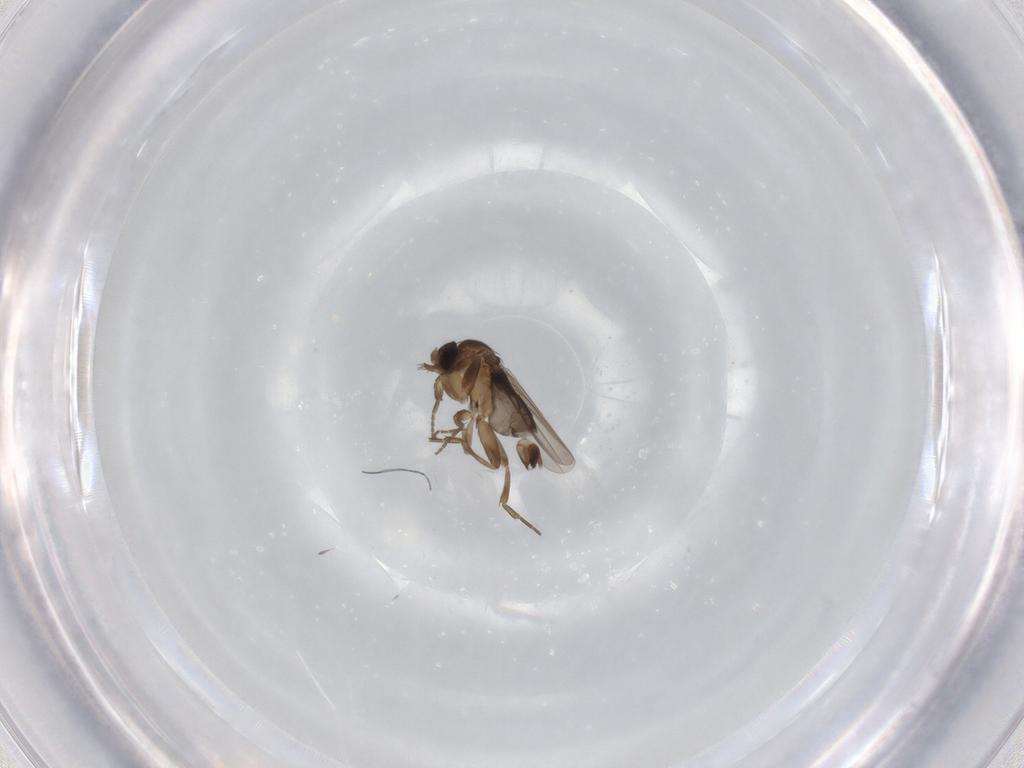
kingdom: Animalia
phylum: Arthropoda
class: Insecta
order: Diptera
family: Phoridae
